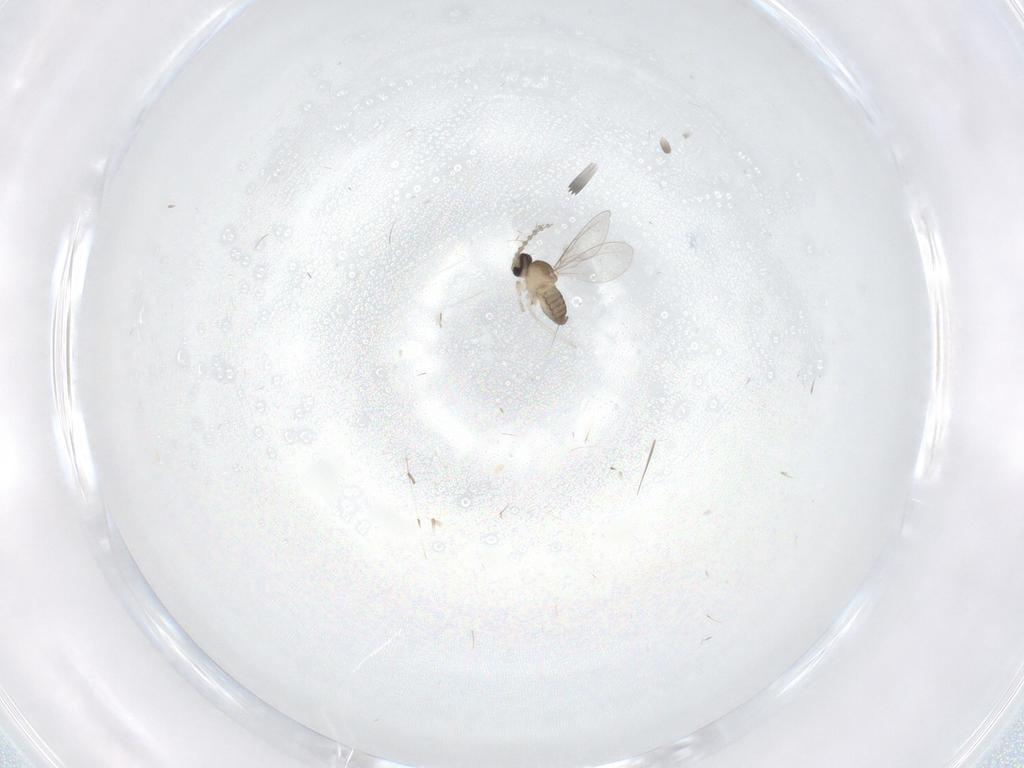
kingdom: Animalia
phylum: Arthropoda
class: Insecta
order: Diptera
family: Cecidomyiidae
